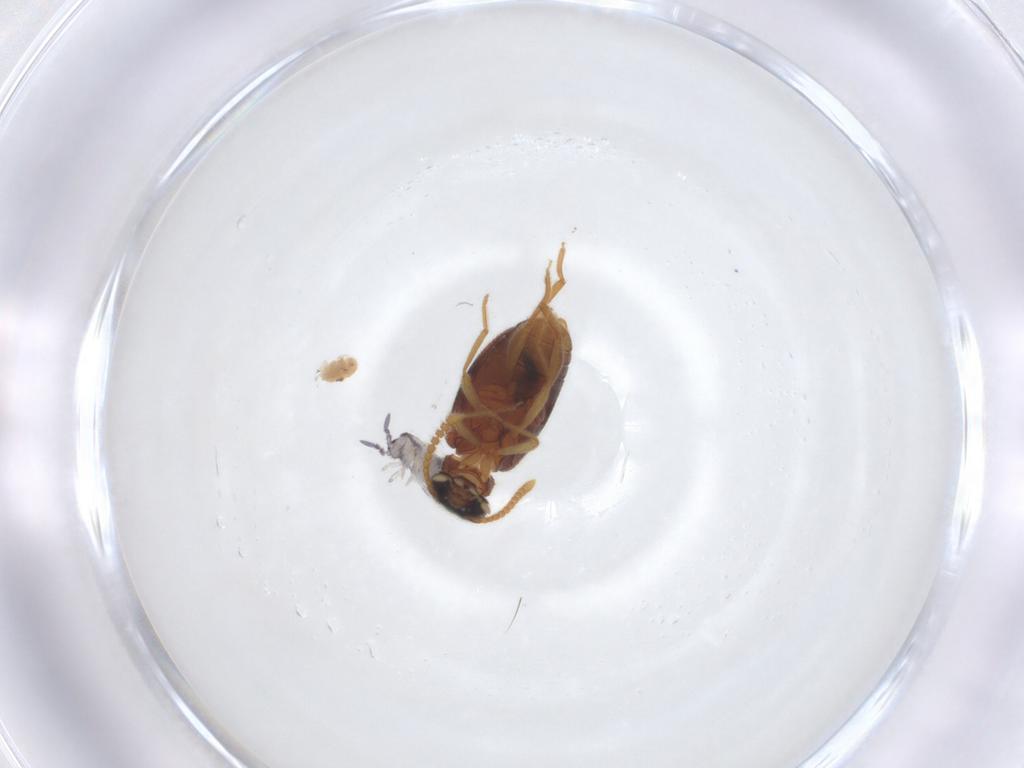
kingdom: Animalia
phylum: Arthropoda
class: Insecta
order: Coleoptera
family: Aderidae
